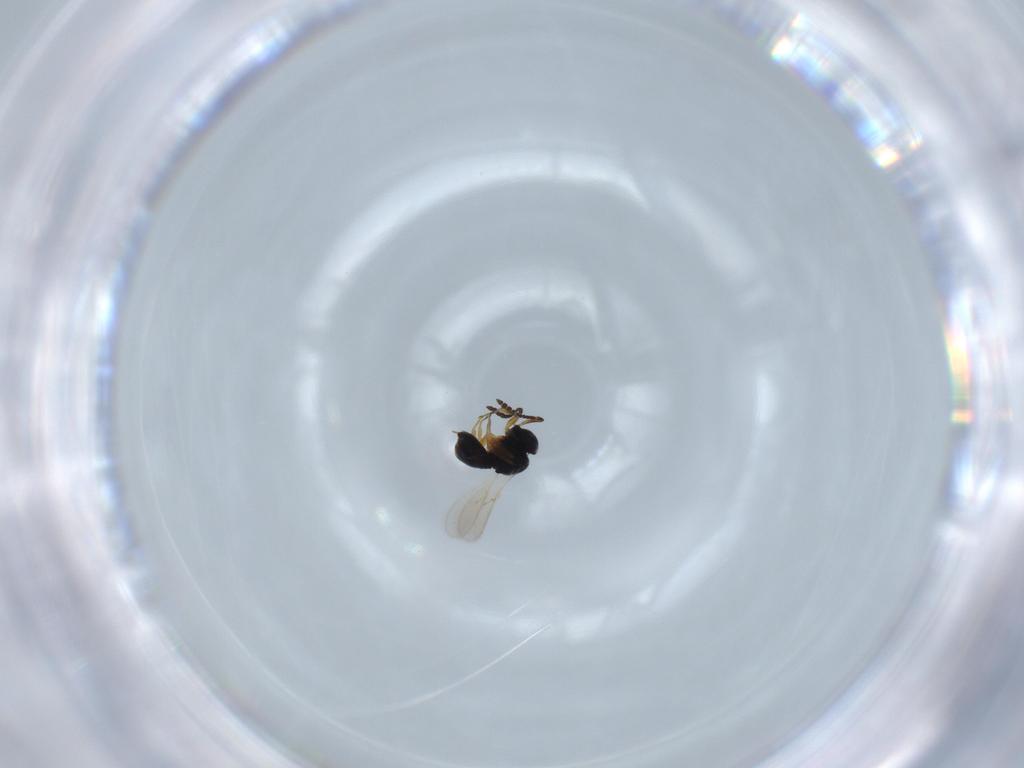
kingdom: Animalia
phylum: Arthropoda
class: Insecta
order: Hymenoptera
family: Scelionidae
